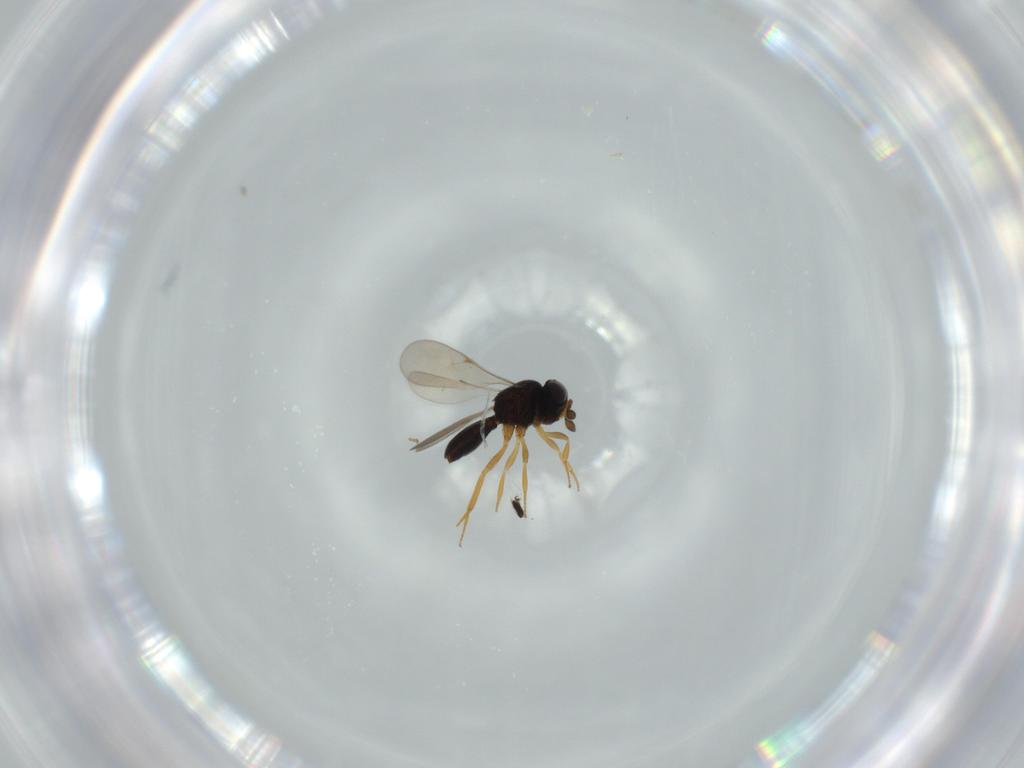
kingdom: Animalia
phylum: Arthropoda
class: Insecta
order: Hymenoptera
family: Scelionidae
